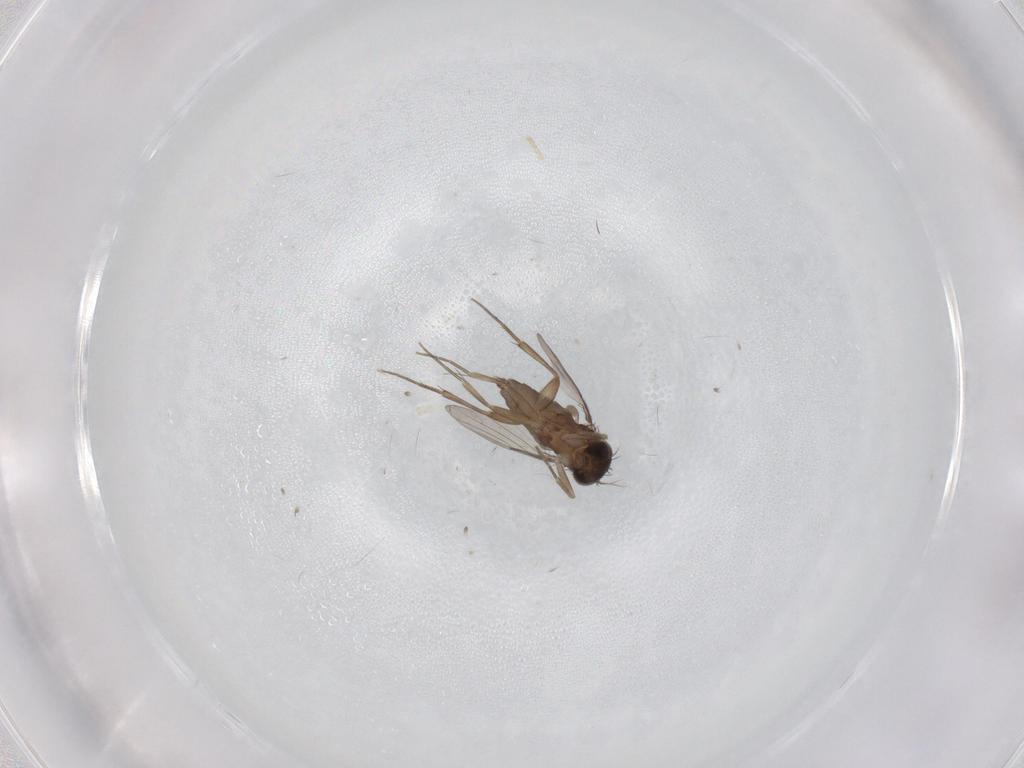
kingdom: Animalia
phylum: Arthropoda
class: Insecta
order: Diptera
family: Phoridae
